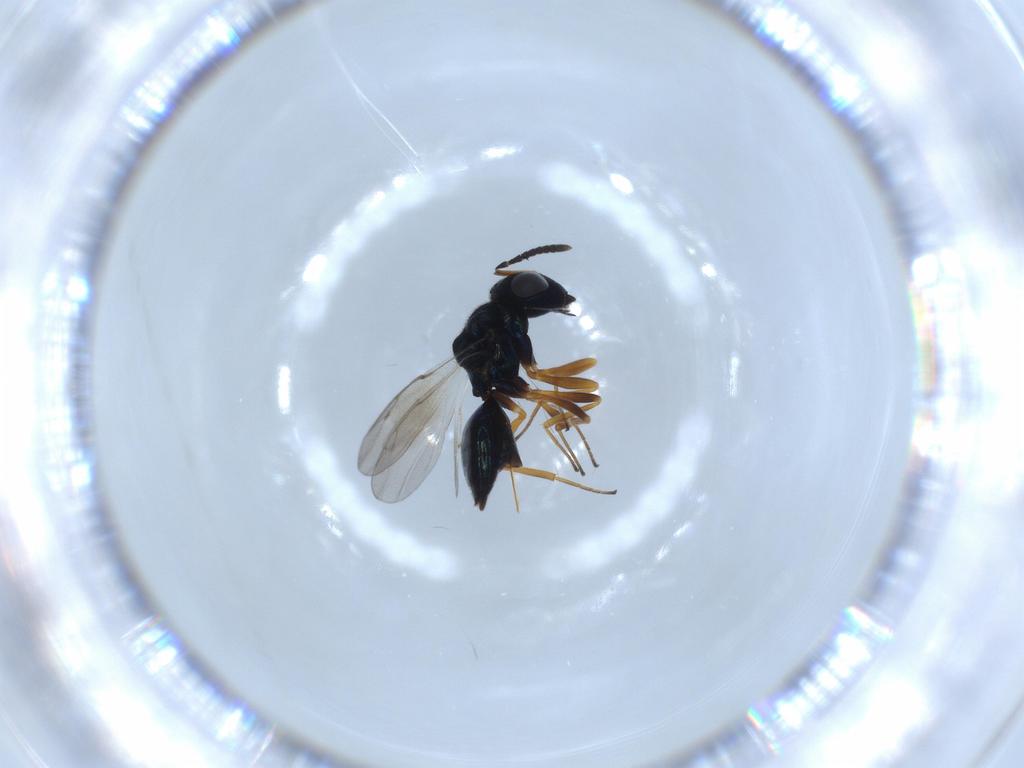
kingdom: Animalia
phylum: Arthropoda
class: Insecta
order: Hymenoptera
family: Pteromalidae
